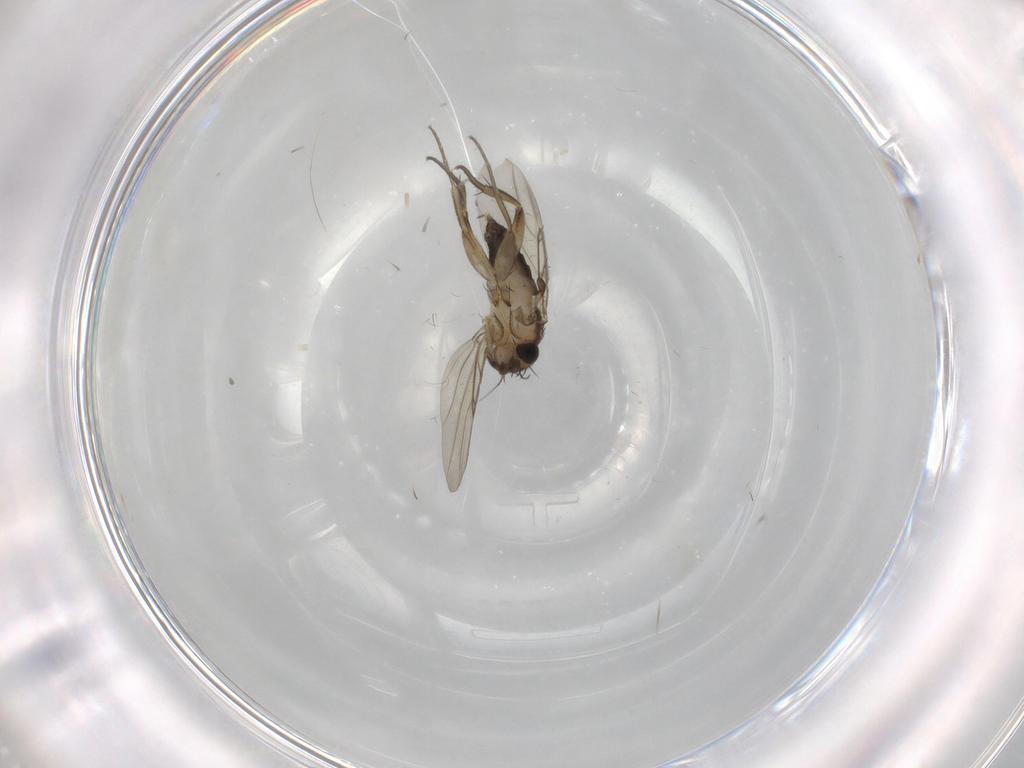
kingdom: Animalia
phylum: Arthropoda
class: Insecta
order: Diptera
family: Phoridae
